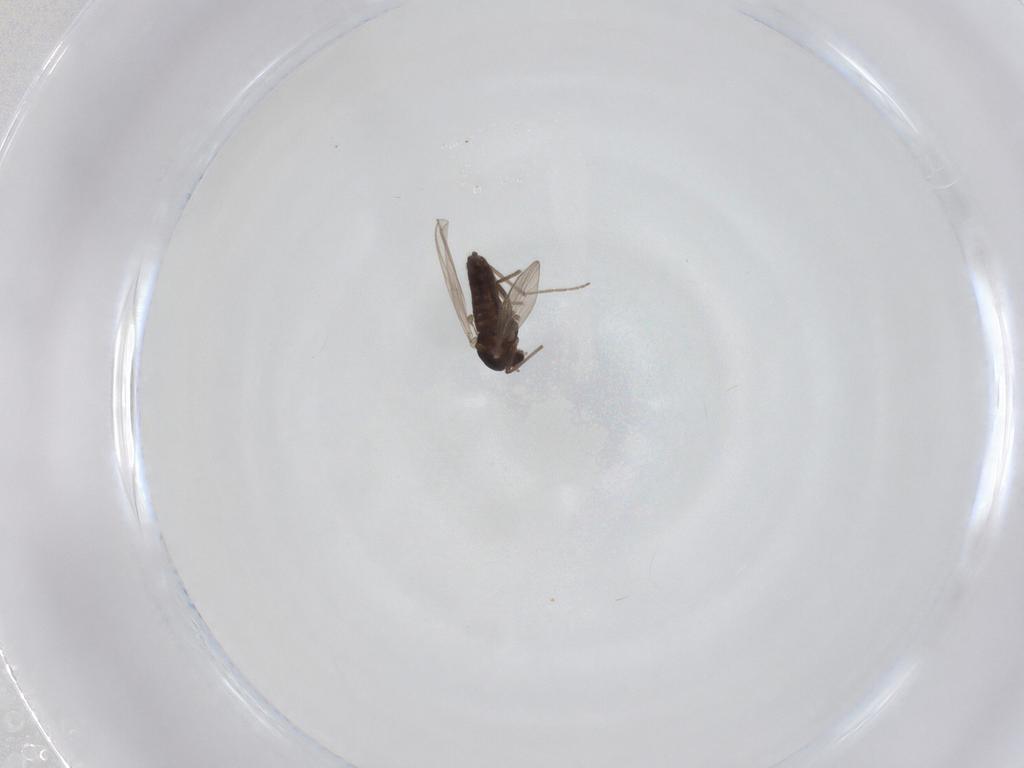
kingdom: Animalia
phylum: Arthropoda
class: Insecta
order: Diptera
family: Chironomidae
